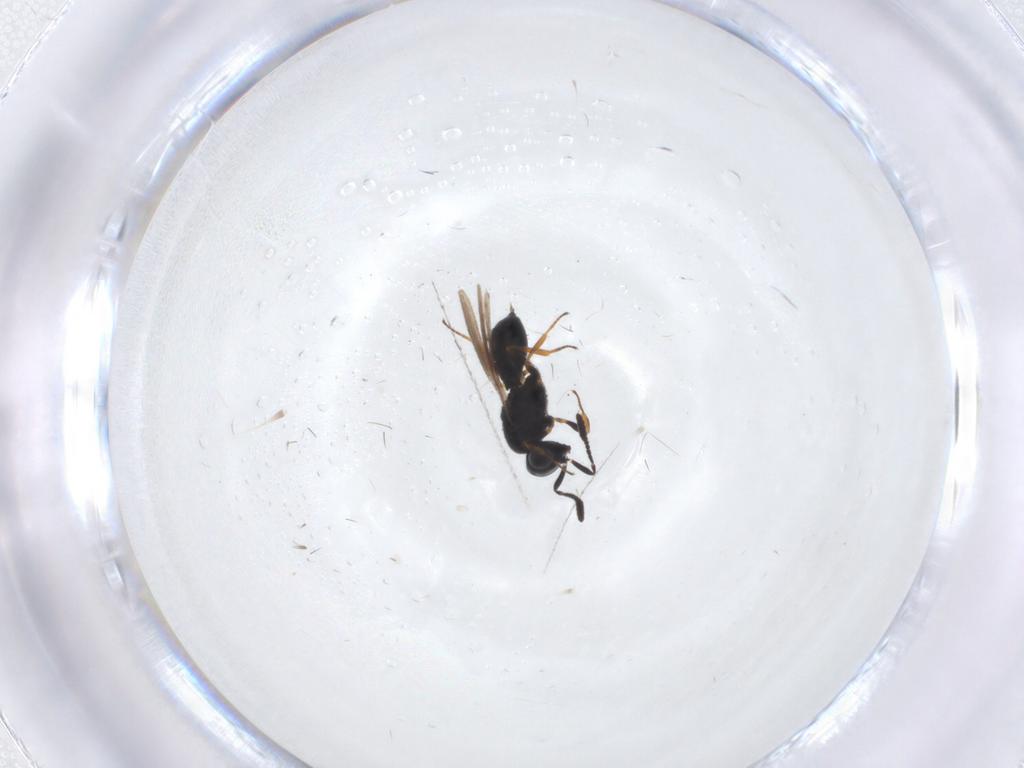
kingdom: Animalia
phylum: Arthropoda
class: Insecta
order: Hymenoptera
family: Scelionidae
